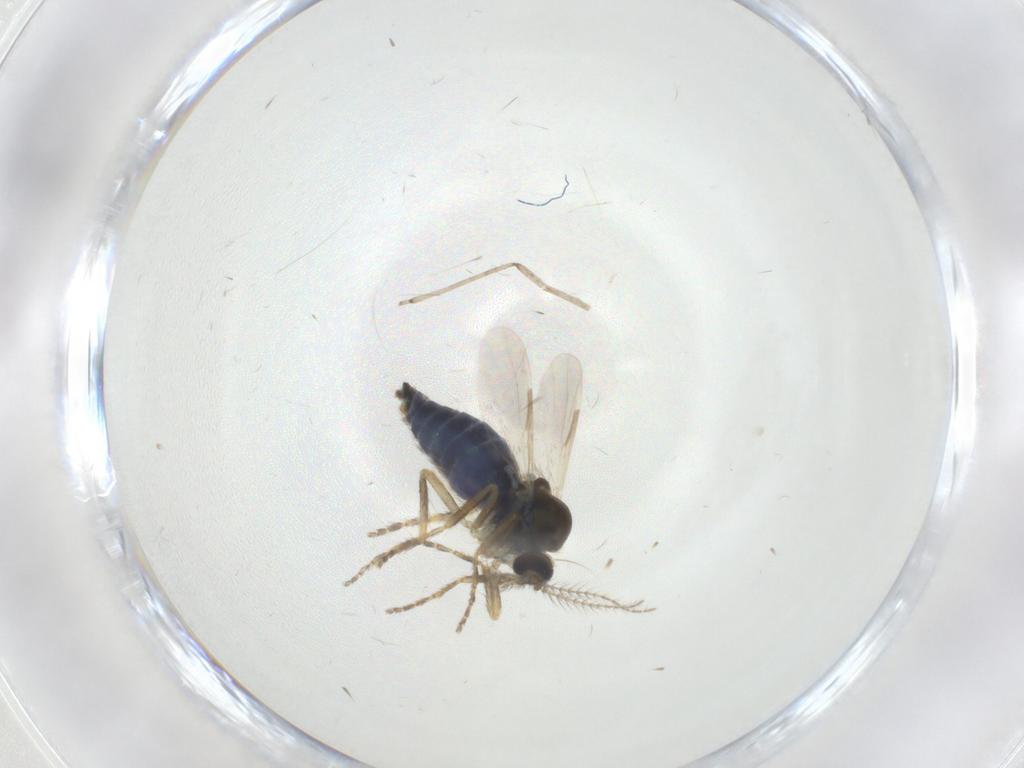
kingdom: Animalia
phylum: Arthropoda
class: Insecta
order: Diptera
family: Ceratopogonidae
